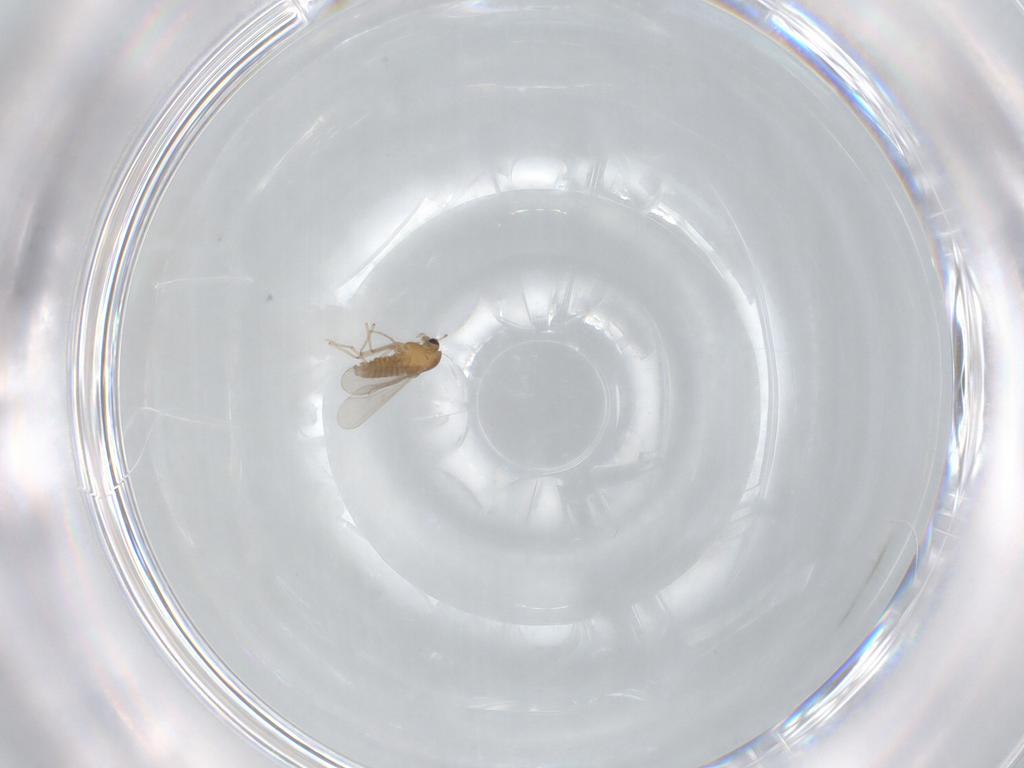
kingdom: Animalia
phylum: Arthropoda
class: Insecta
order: Diptera
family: Chironomidae
